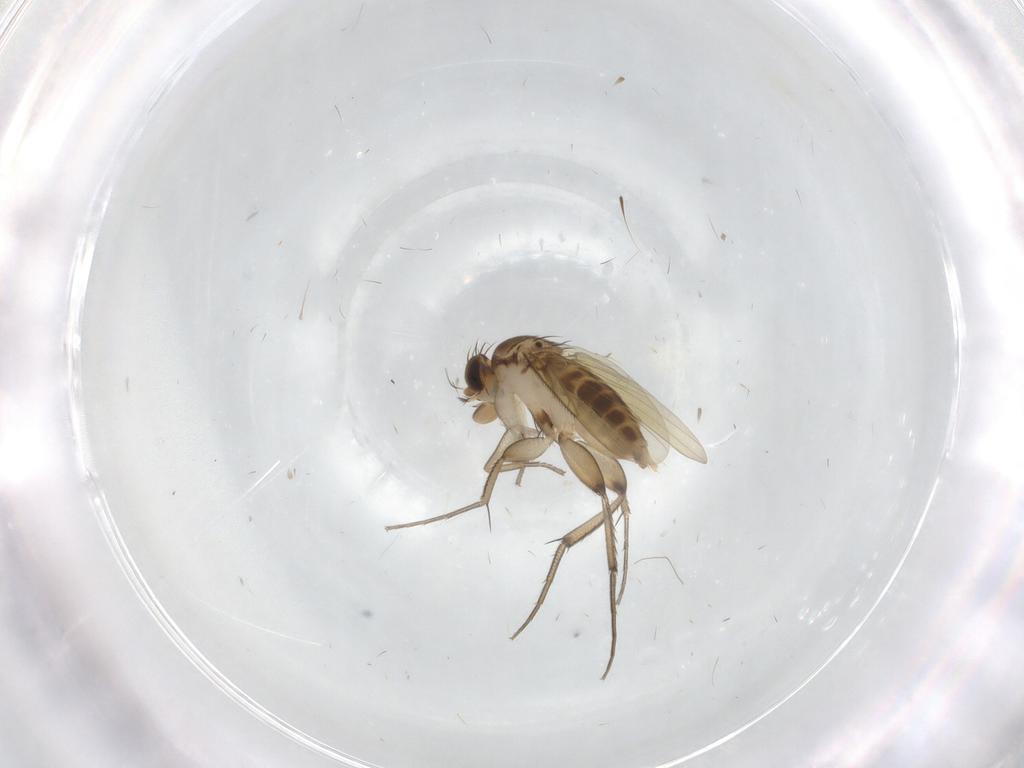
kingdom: Animalia
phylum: Arthropoda
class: Insecta
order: Diptera
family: Phoridae
